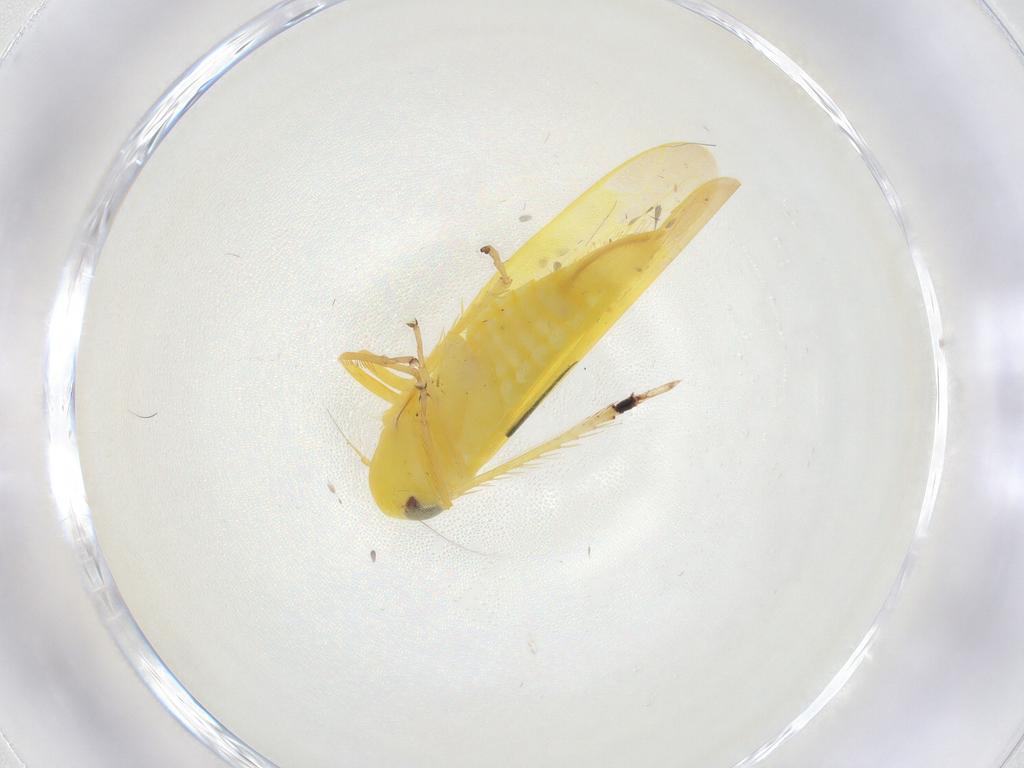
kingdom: Animalia
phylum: Arthropoda
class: Insecta
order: Hemiptera
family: Cicadellidae
